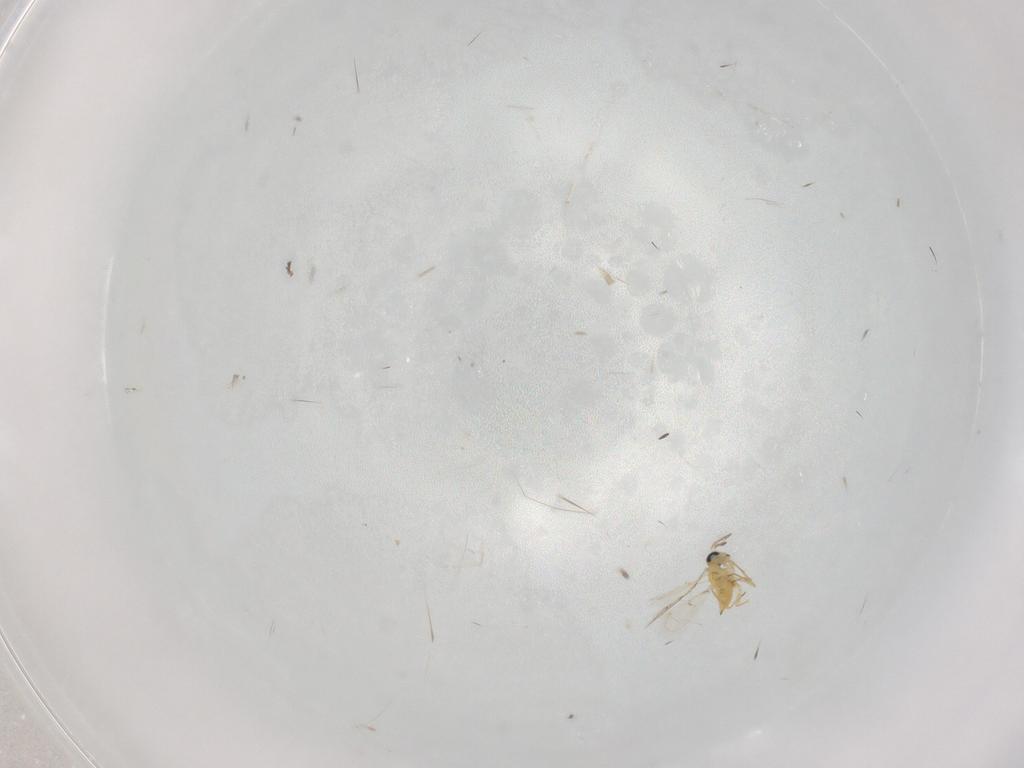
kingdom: Animalia
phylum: Arthropoda
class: Insecta
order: Hymenoptera
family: Trichogrammatidae
